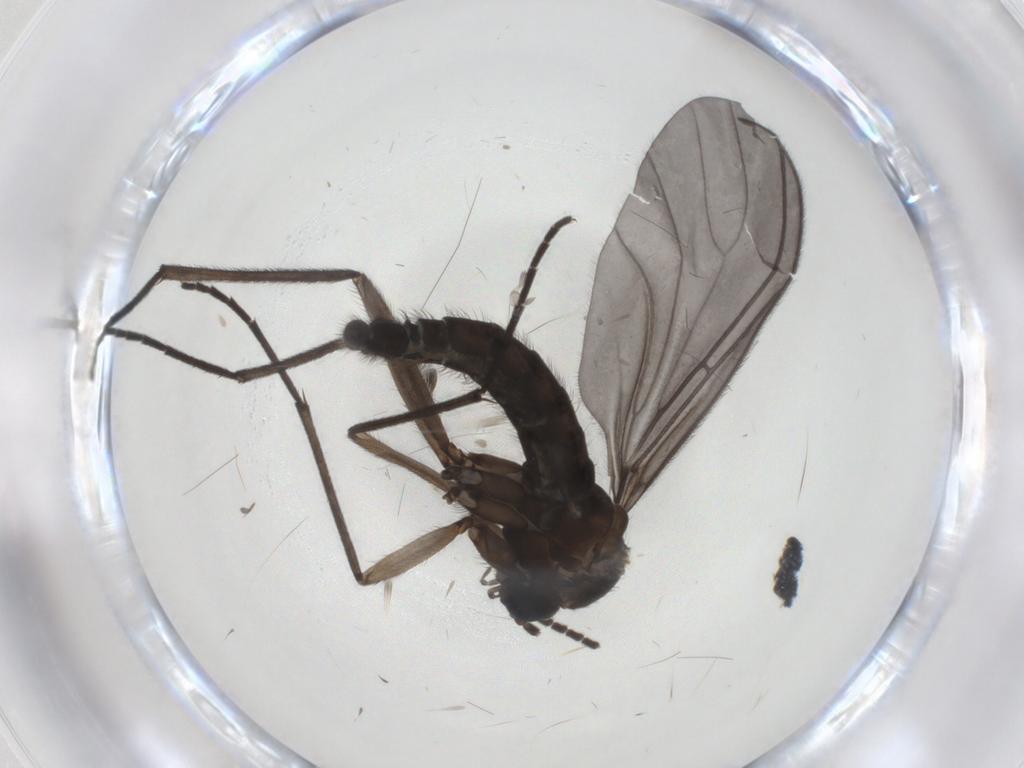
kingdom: Animalia
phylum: Arthropoda
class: Insecta
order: Diptera
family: Sciaridae
